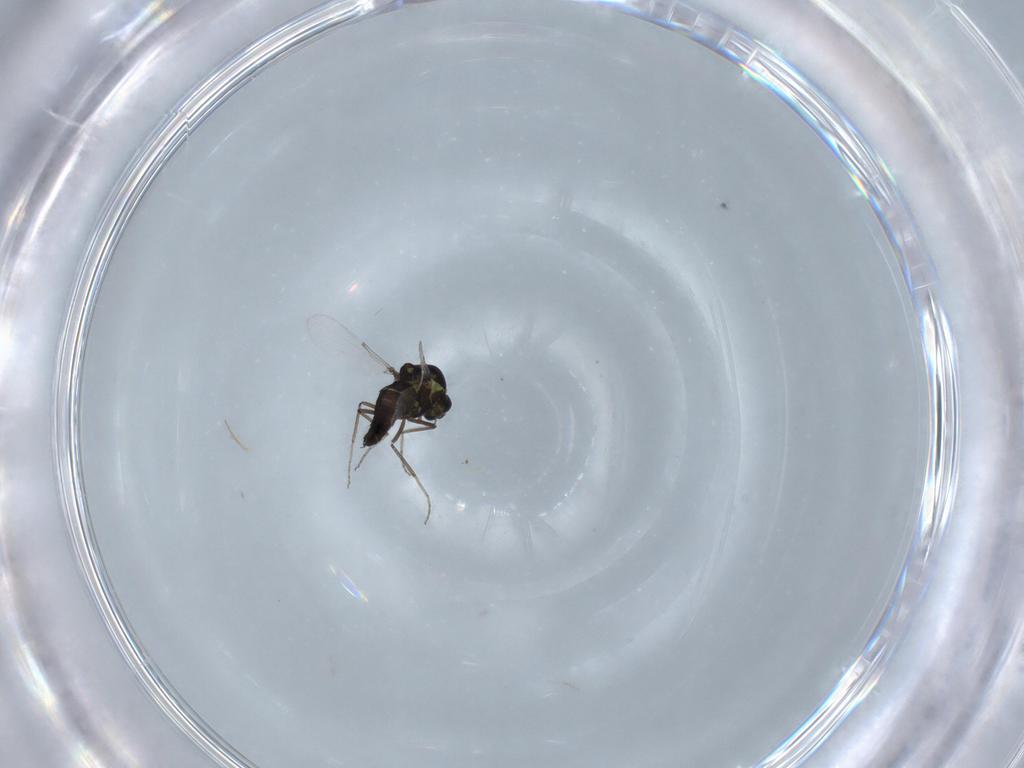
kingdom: Animalia
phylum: Arthropoda
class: Insecta
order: Diptera
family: Ceratopogonidae
